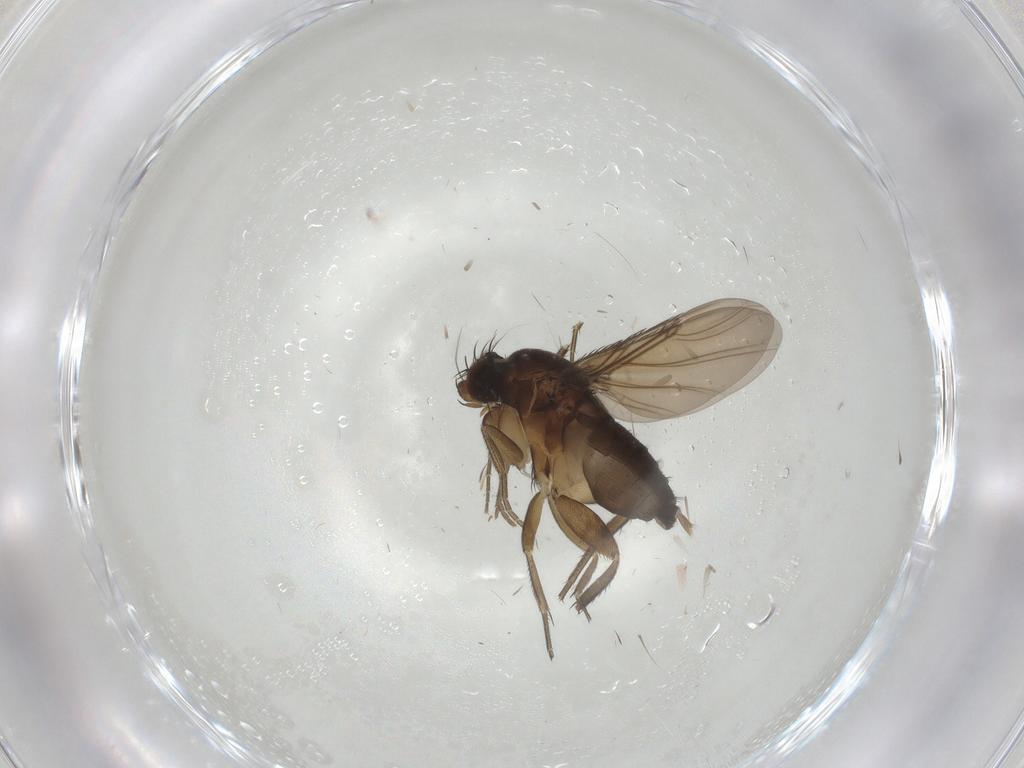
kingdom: Animalia
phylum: Arthropoda
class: Insecta
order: Diptera
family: Phoridae
